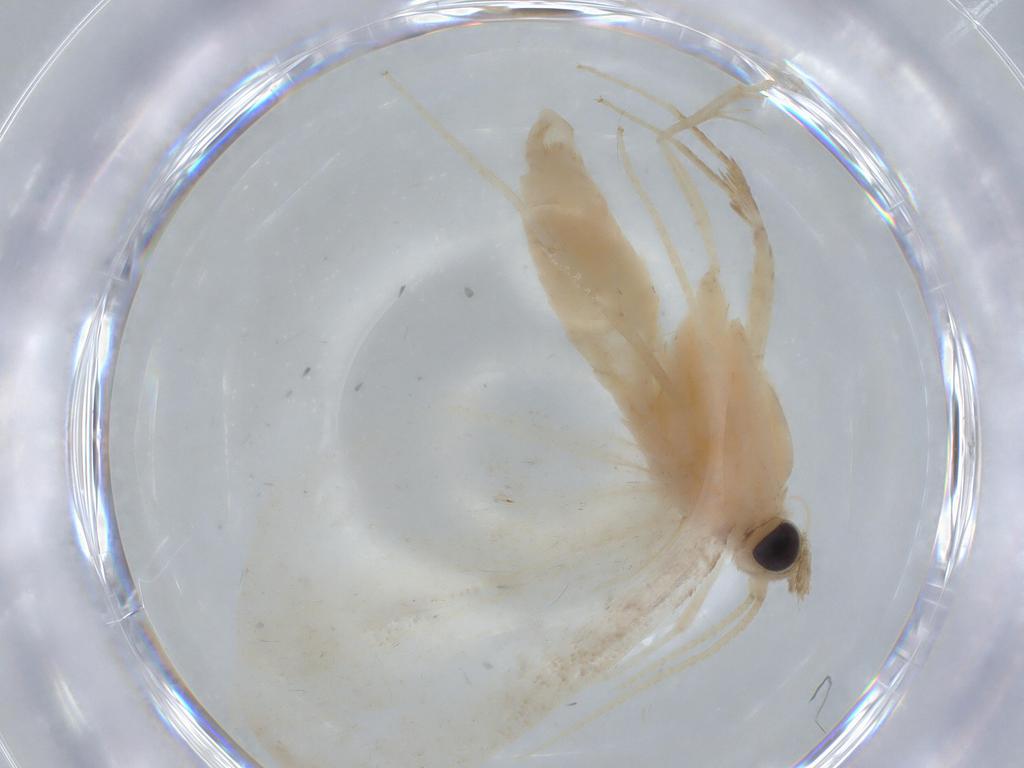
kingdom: Animalia
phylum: Arthropoda
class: Insecta
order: Lepidoptera
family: Crambidae
